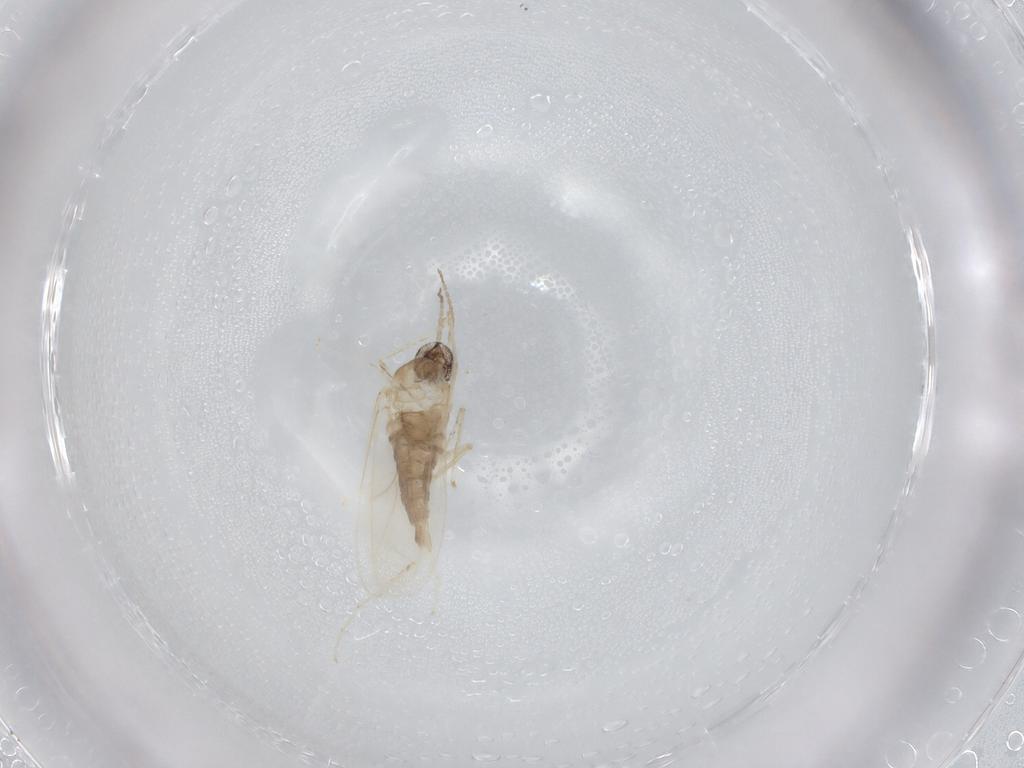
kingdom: Animalia
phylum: Arthropoda
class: Insecta
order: Diptera
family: Cecidomyiidae
